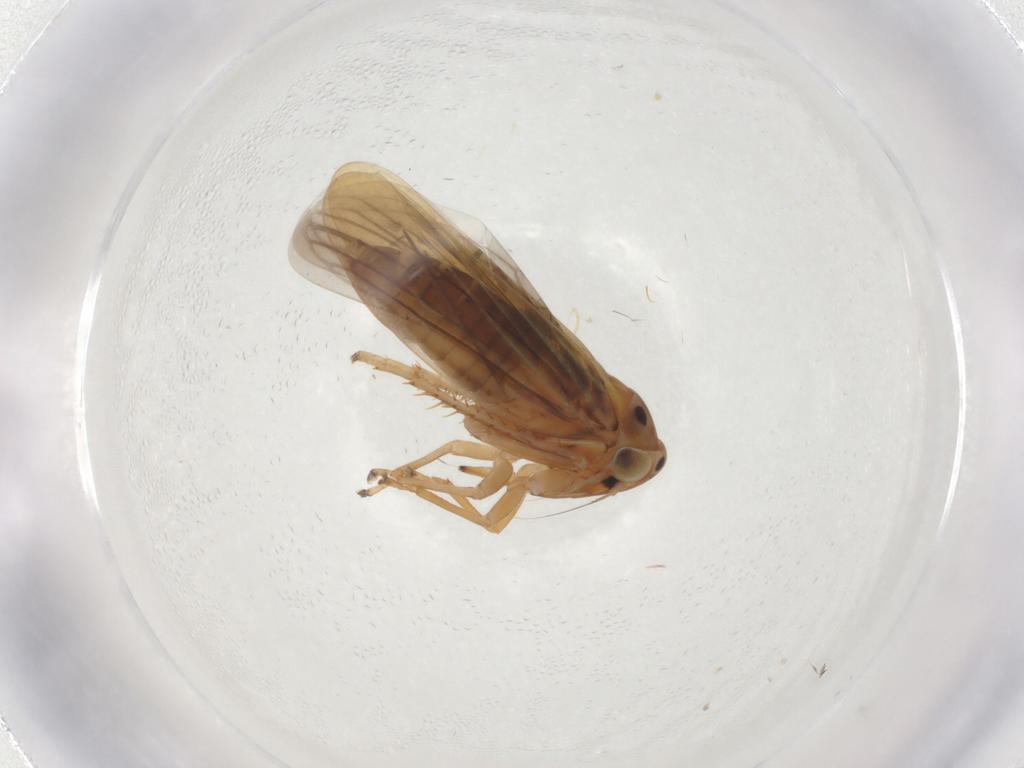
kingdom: Animalia
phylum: Arthropoda
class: Insecta
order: Hemiptera
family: Cicadellidae
